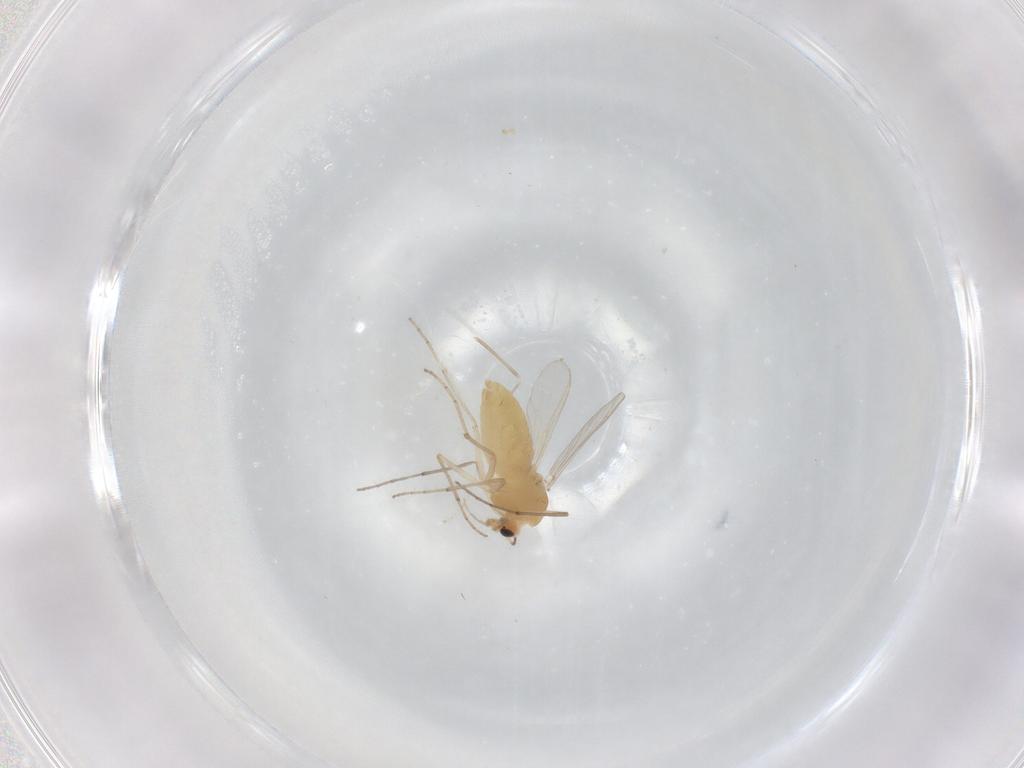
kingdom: Animalia
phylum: Arthropoda
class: Insecta
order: Diptera
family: Chironomidae
